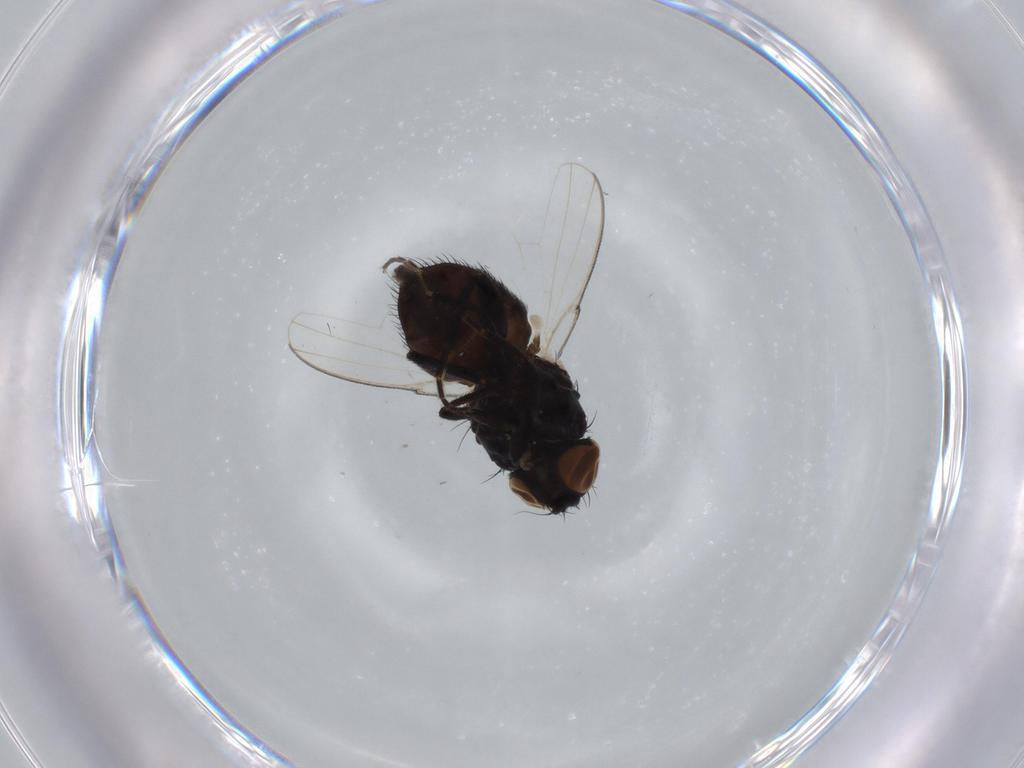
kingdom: Animalia
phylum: Arthropoda
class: Insecta
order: Diptera
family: Milichiidae
